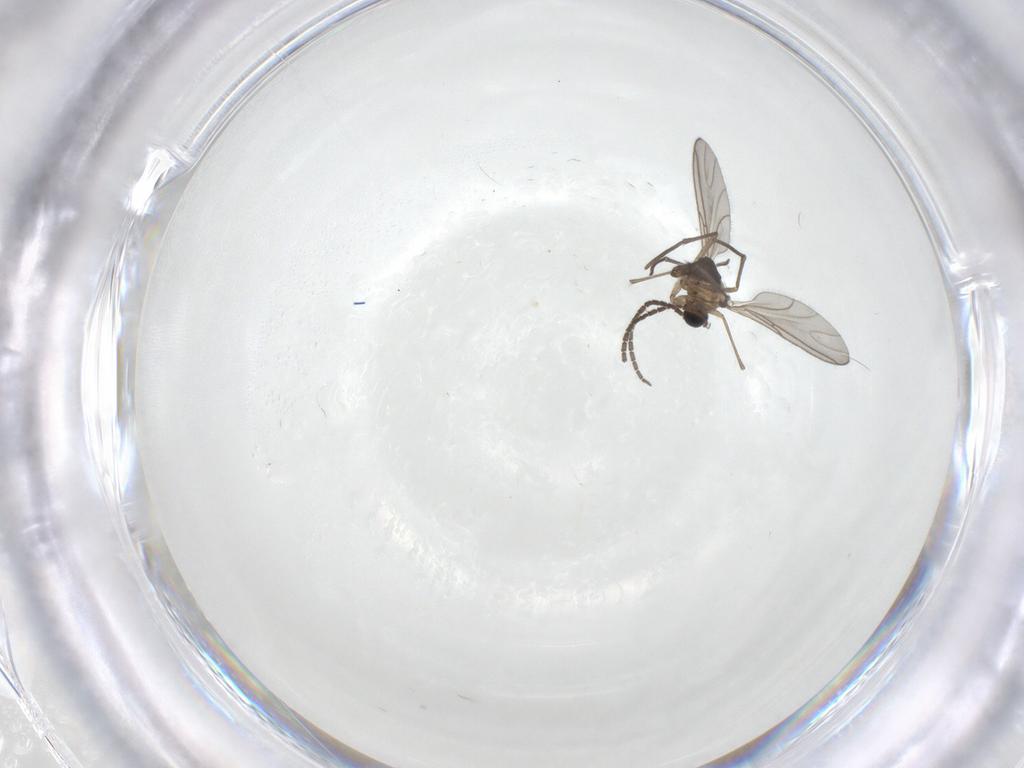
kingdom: Animalia
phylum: Arthropoda
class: Insecta
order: Diptera
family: Sciaridae
